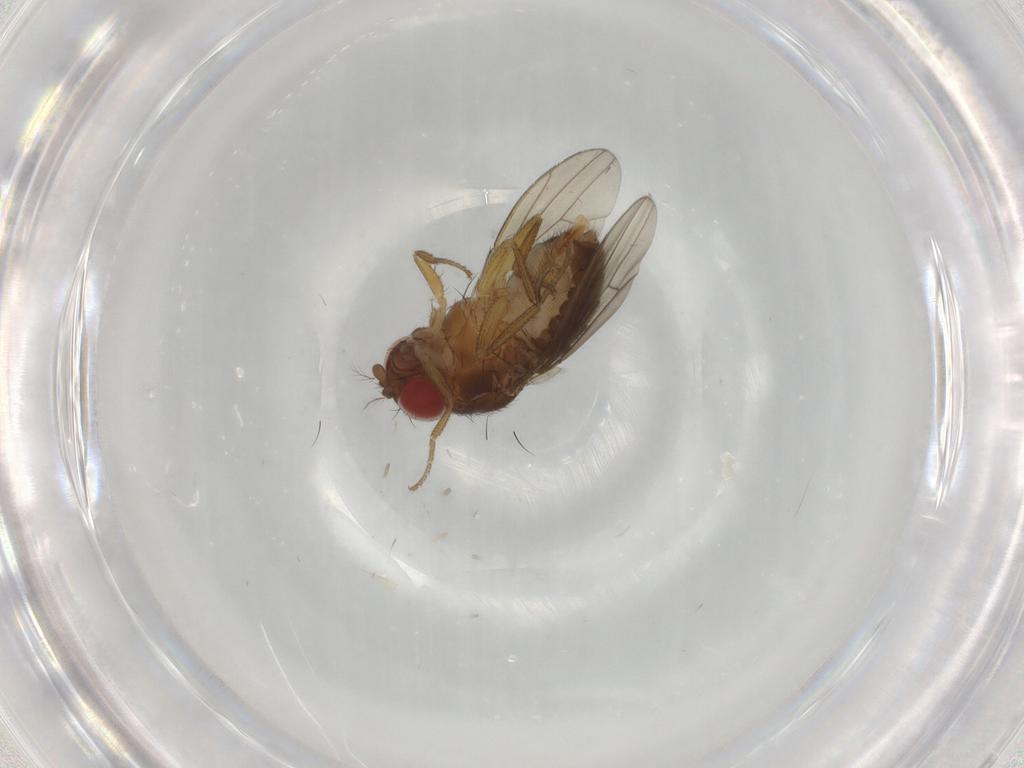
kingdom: Animalia
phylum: Arthropoda
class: Insecta
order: Diptera
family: Drosophilidae
